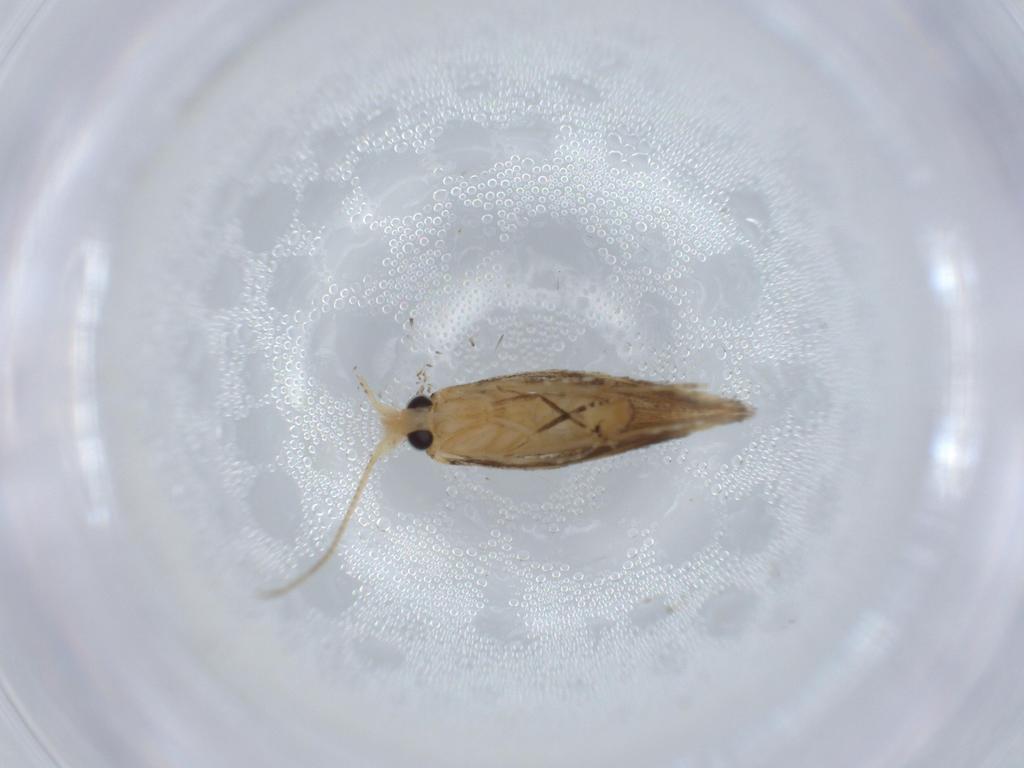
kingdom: Animalia
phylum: Arthropoda
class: Insecta
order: Lepidoptera
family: Bucculatricidae
